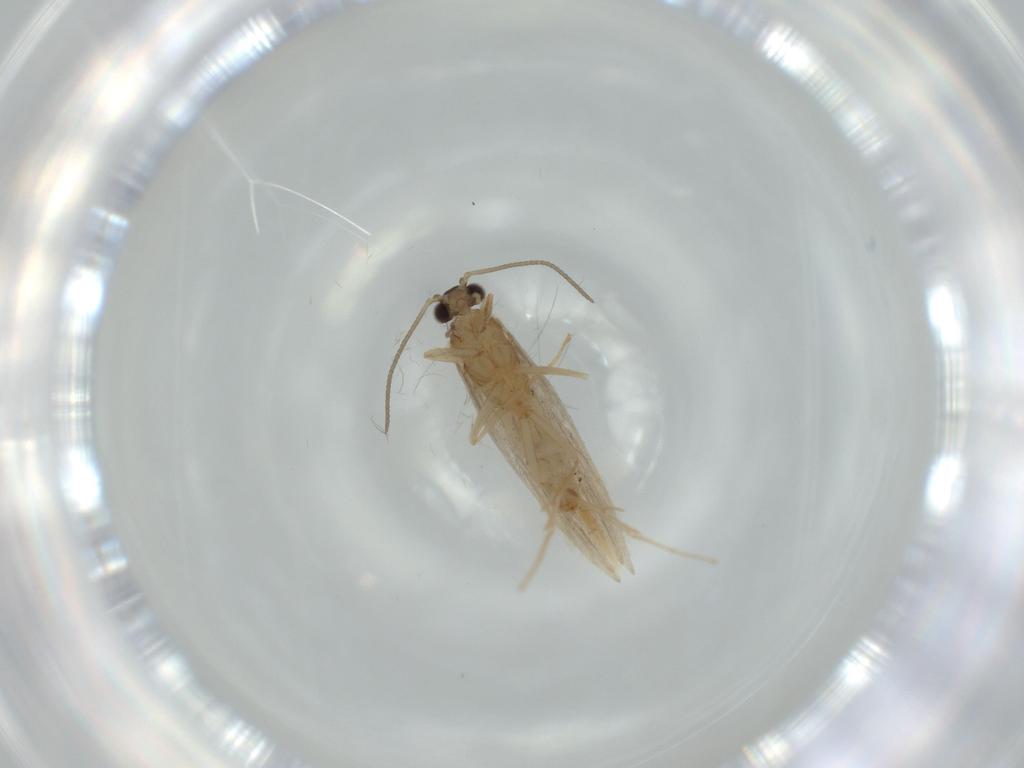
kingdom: Animalia
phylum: Arthropoda
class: Insecta
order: Trichoptera
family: Leptoceridae
